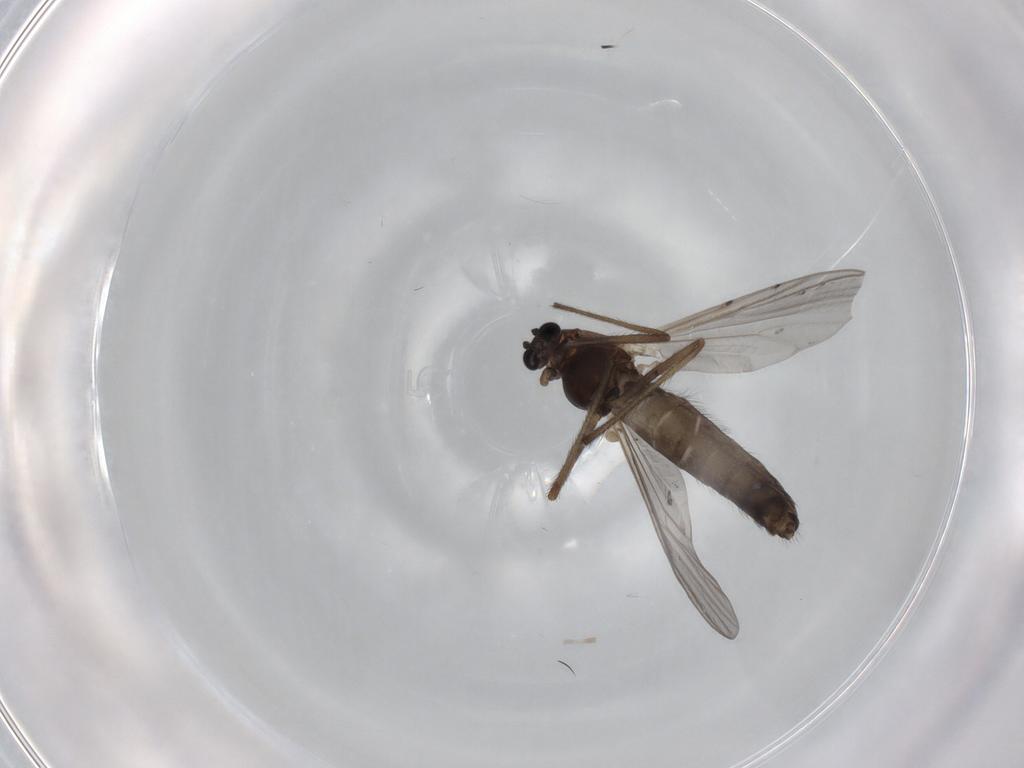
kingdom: Animalia
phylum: Arthropoda
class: Insecta
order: Diptera
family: Chironomidae
